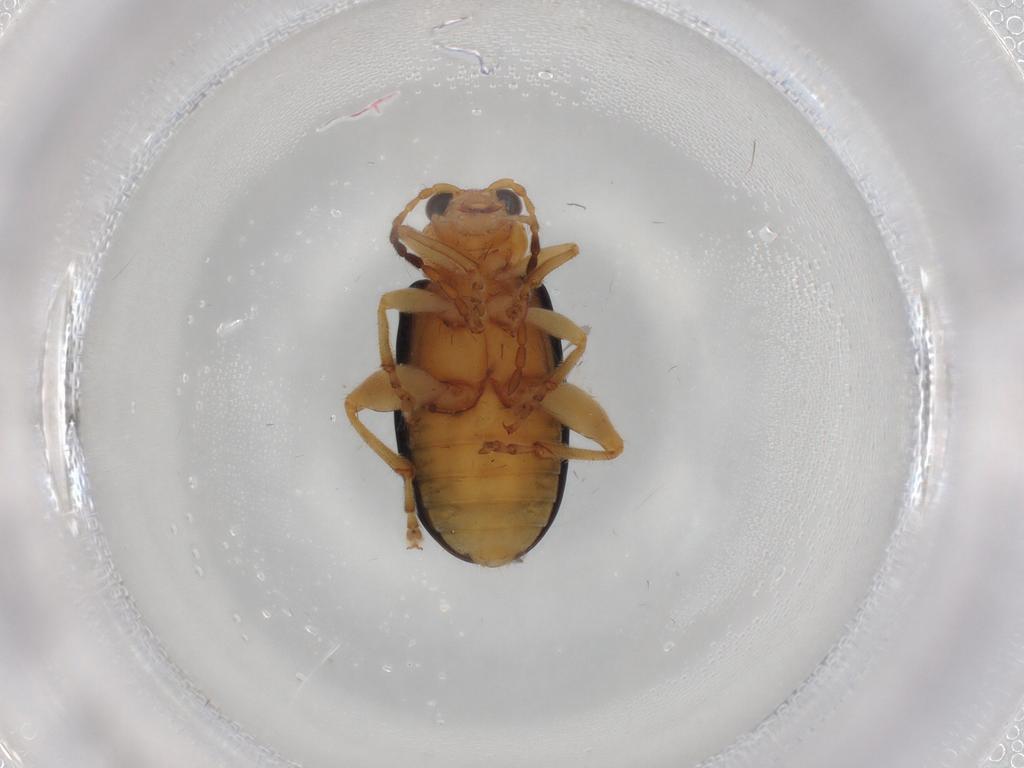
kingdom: Animalia
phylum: Arthropoda
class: Insecta
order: Coleoptera
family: Chrysomelidae
